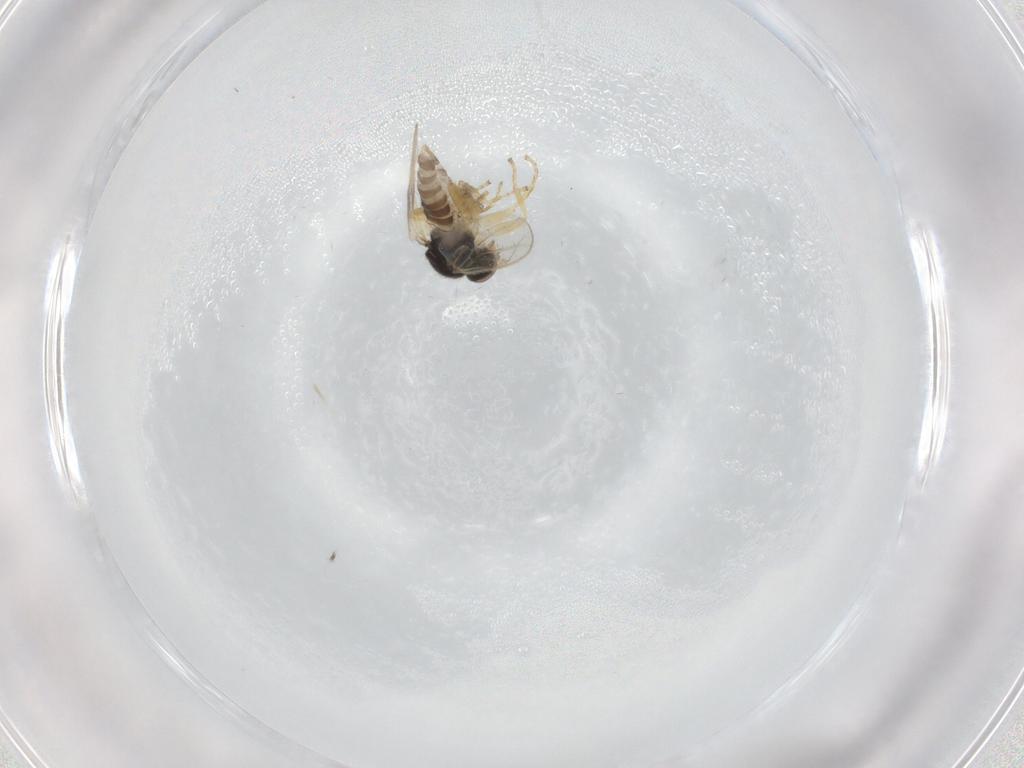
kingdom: Animalia
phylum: Arthropoda
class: Insecta
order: Diptera
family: Hybotidae
